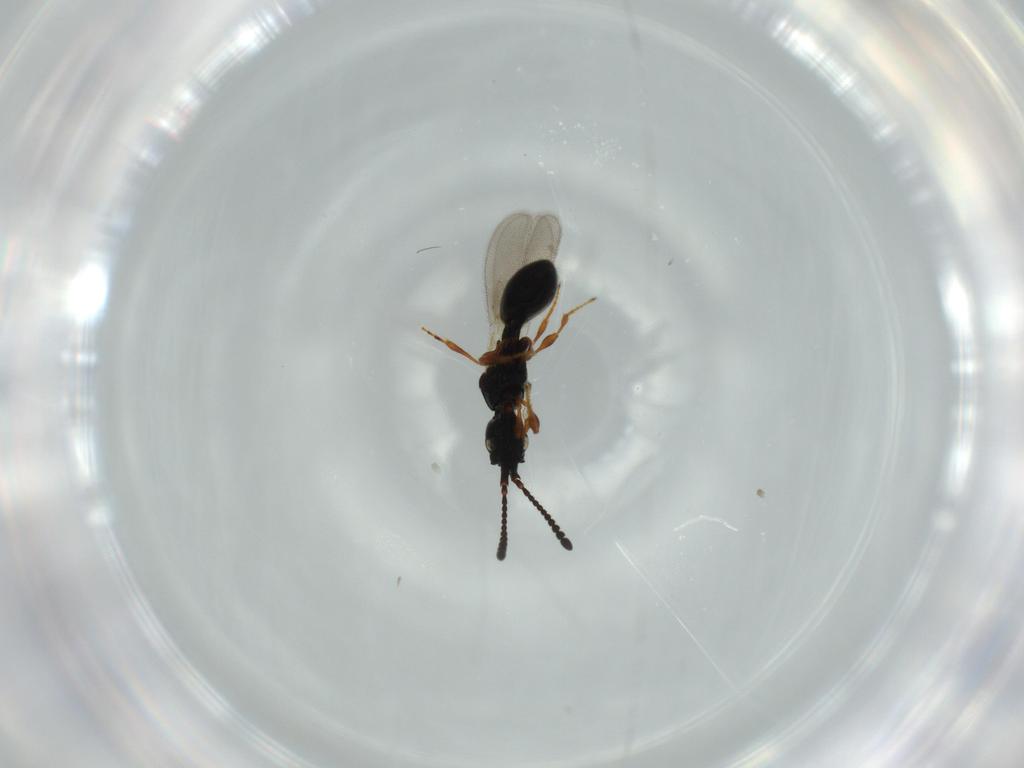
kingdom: Animalia
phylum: Arthropoda
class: Insecta
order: Hymenoptera
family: Diapriidae
